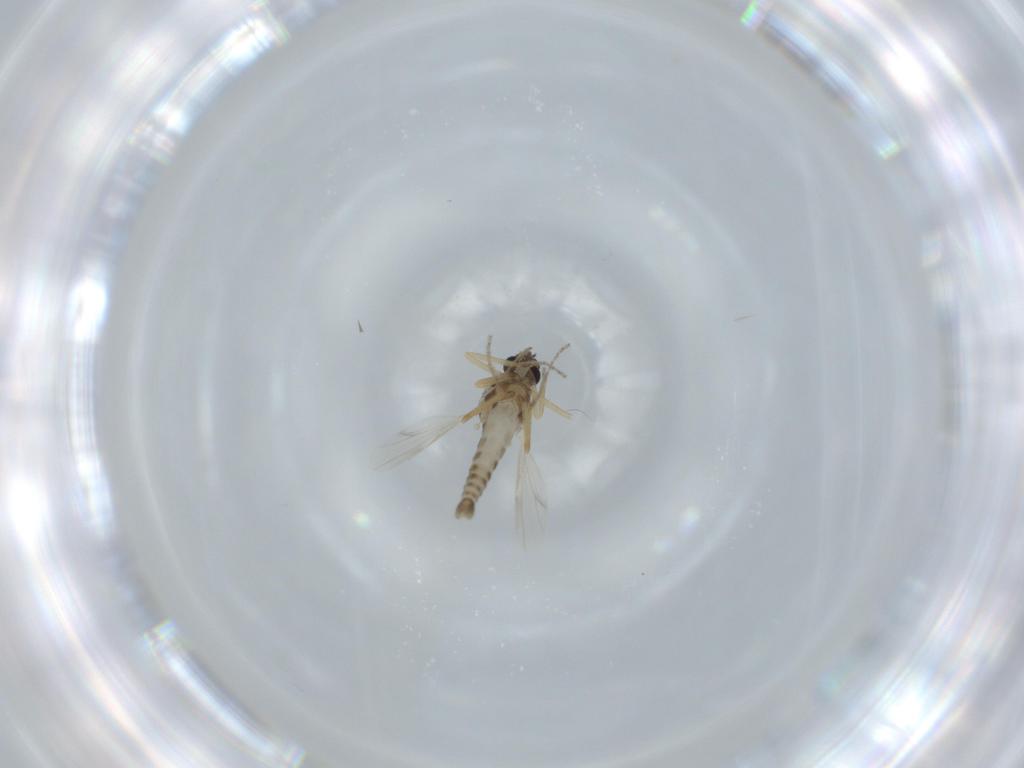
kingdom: Animalia
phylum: Arthropoda
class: Insecta
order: Diptera
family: Ceratopogonidae
